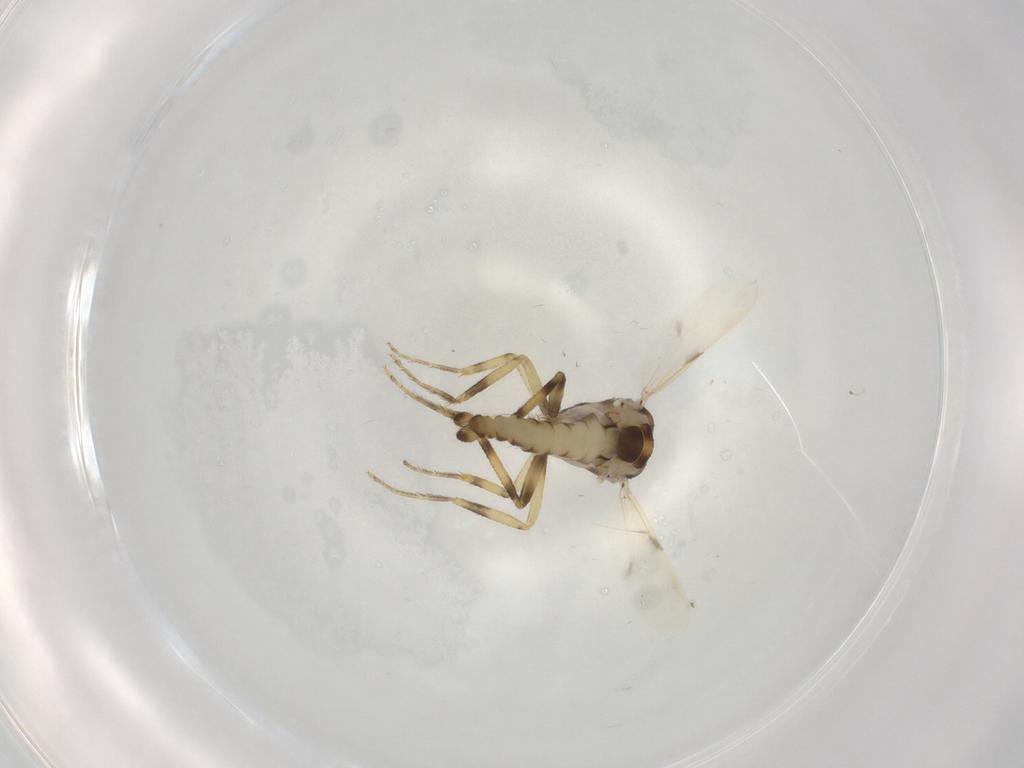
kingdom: Animalia
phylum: Arthropoda
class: Insecta
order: Diptera
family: Ceratopogonidae
